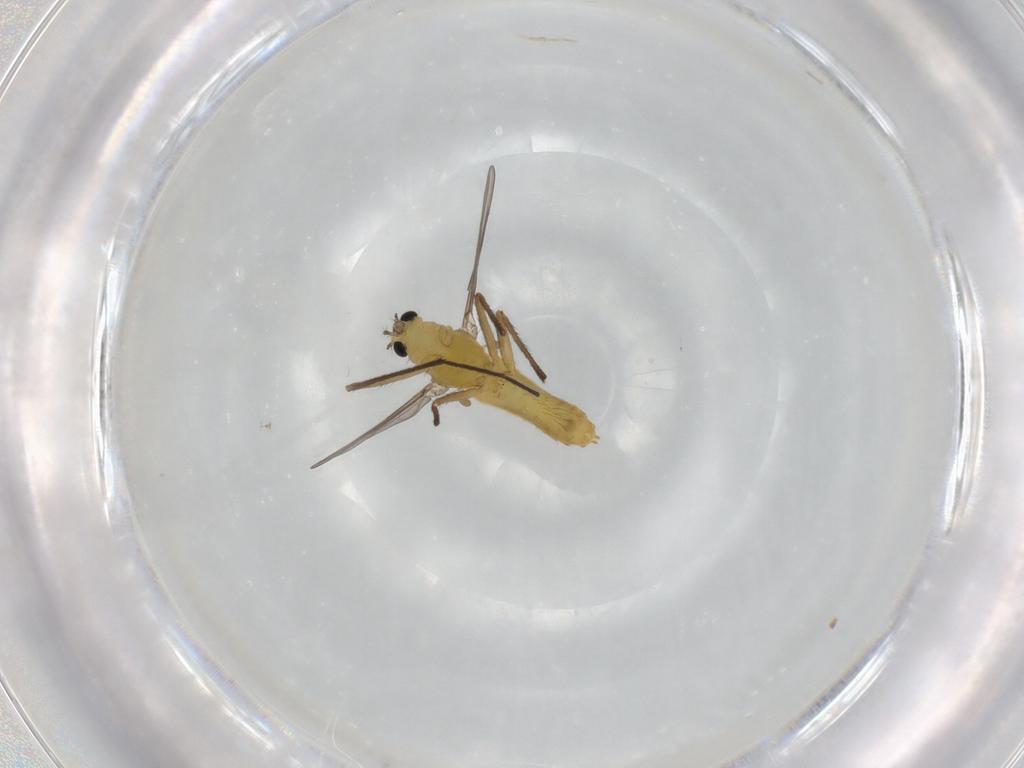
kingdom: Animalia
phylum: Arthropoda
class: Insecta
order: Diptera
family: Chironomidae
